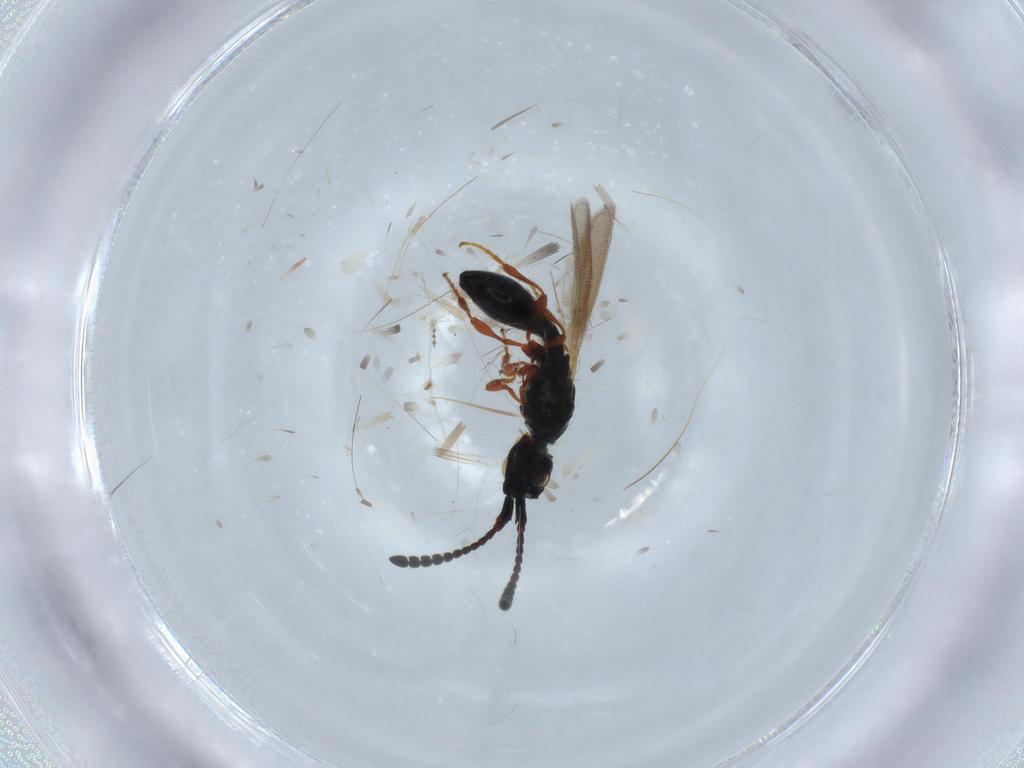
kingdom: Animalia
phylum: Arthropoda
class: Insecta
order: Hymenoptera
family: Diapriidae
